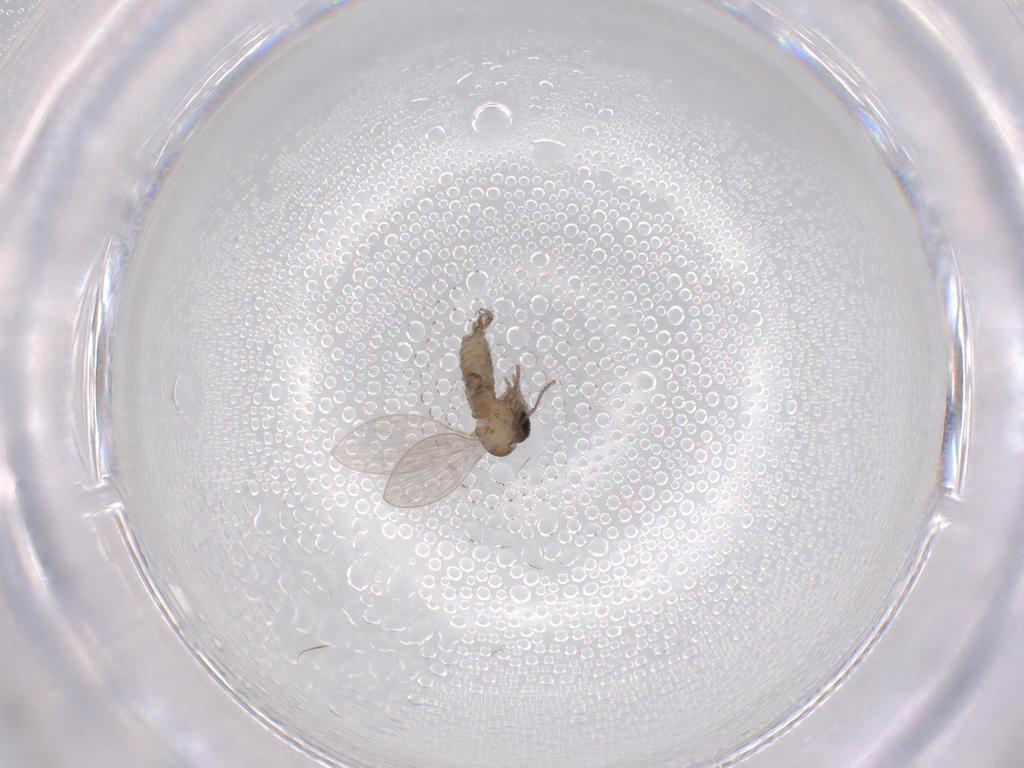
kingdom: Animalia
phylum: Arthropoda
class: Insecta
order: Diptera
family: Psychodidae
